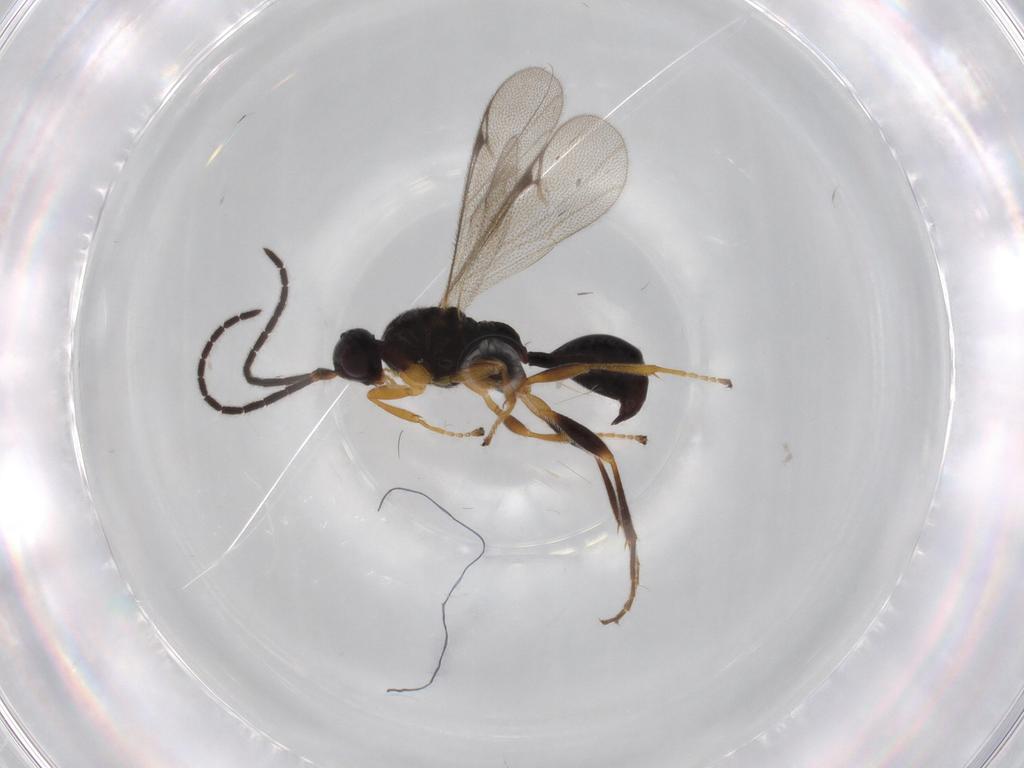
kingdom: Animalia
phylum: Arthropoda
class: Insecta
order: Hymenoptera
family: Proctotrupidae
